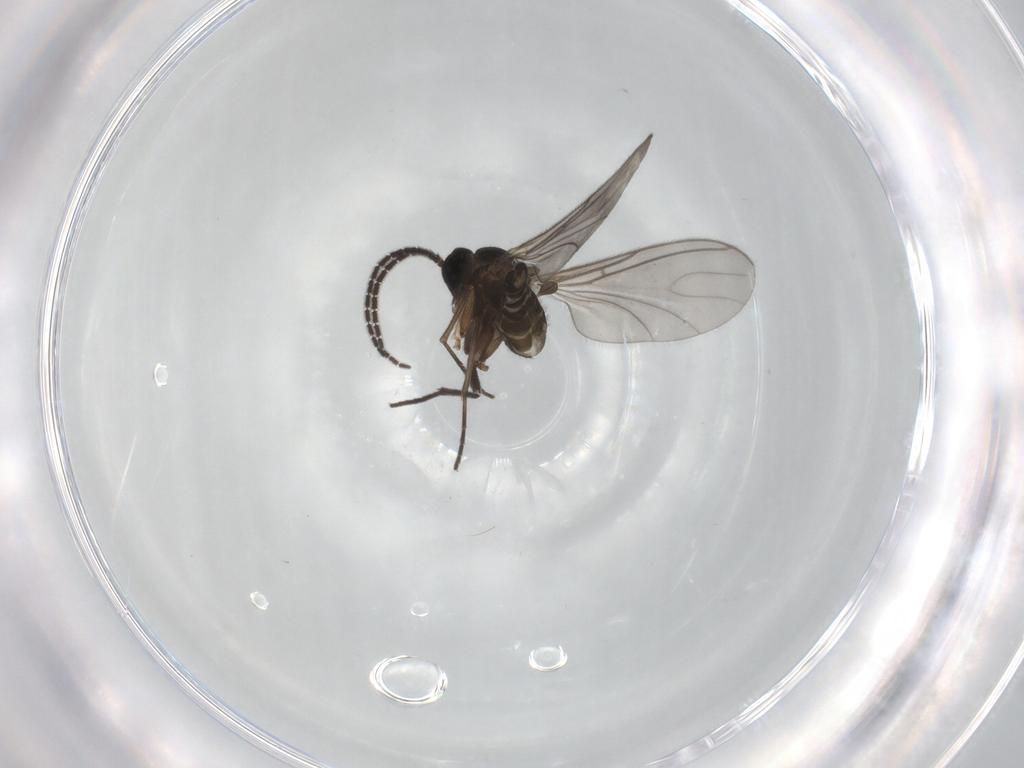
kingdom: Animalia
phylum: Arthropoda
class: Insecta
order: Diptera
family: Sciaridae
